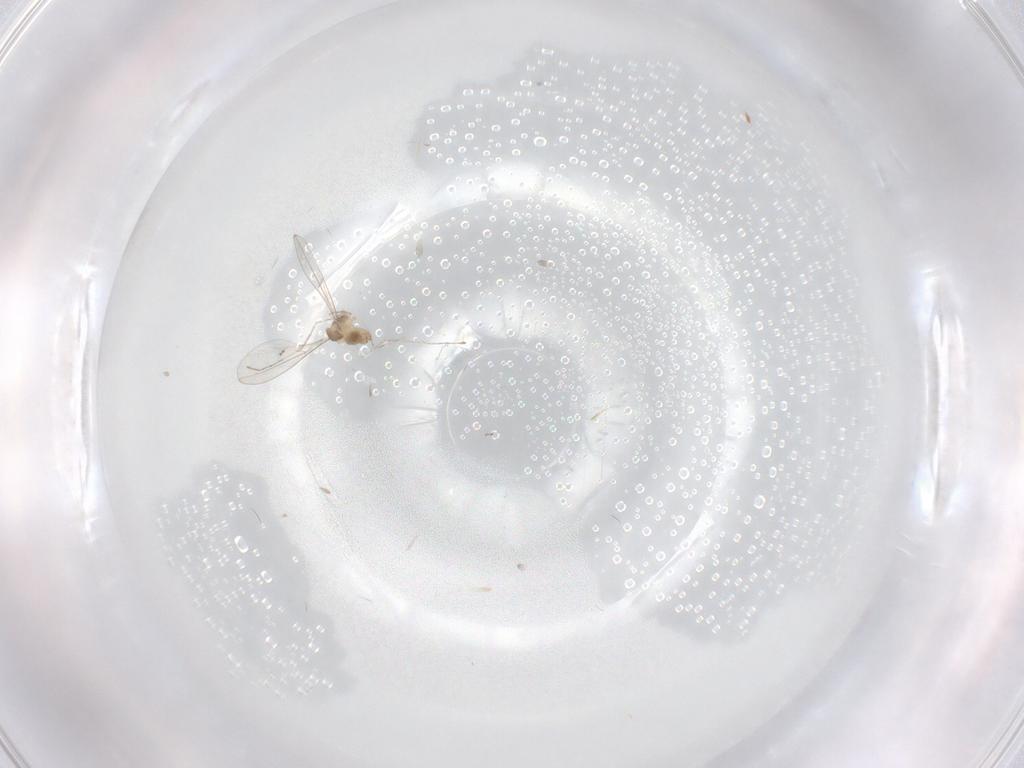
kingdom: Animalia
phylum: Arthropoda
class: Insecta
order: Diptera
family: Cecidomyiidae
